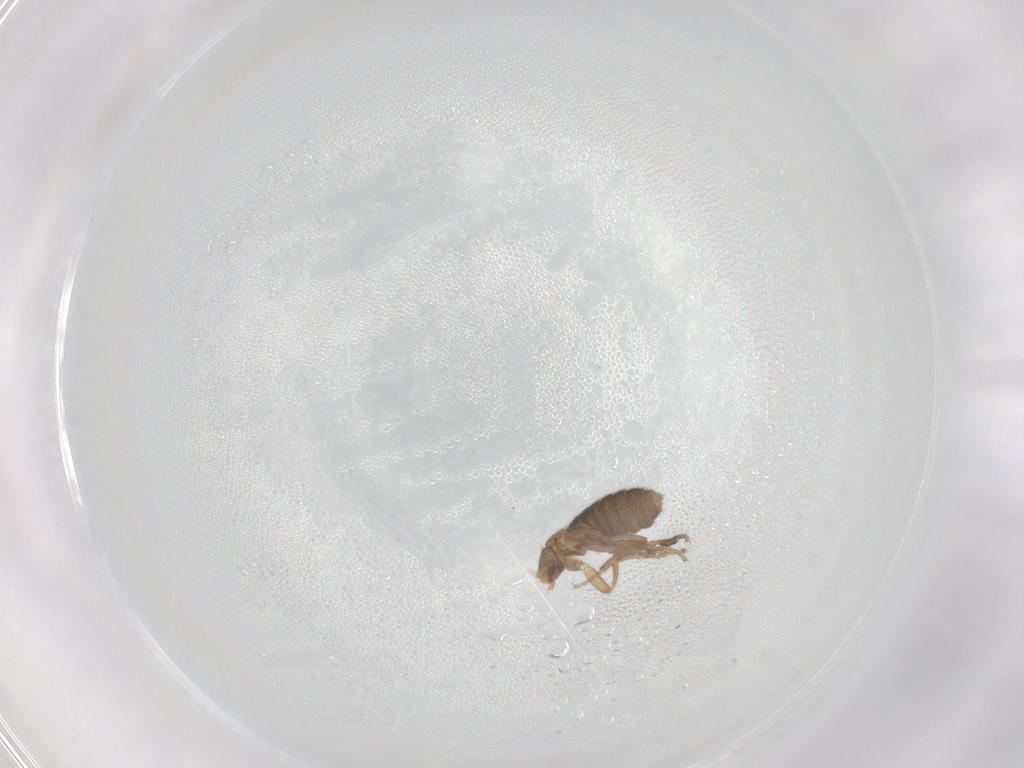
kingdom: Animalia
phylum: Arthropoda
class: Insecta
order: Diptera
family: Phoridae
